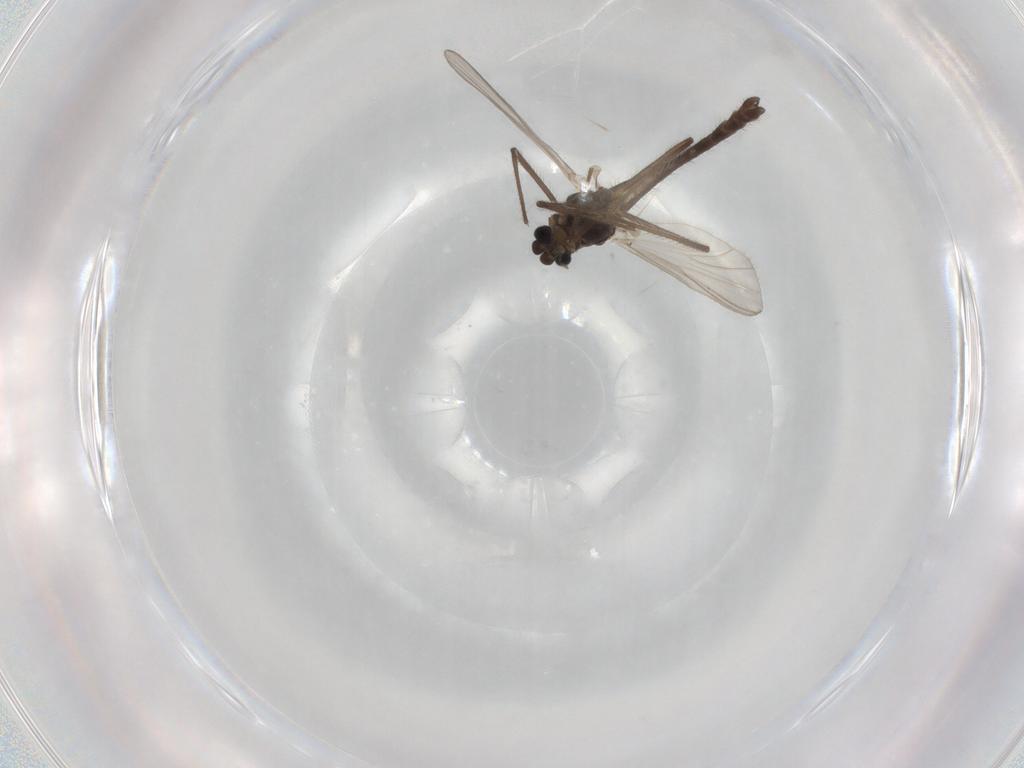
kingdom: Animalia
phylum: Arthropoda
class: Insecta
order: Diptera
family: Chironomidae
